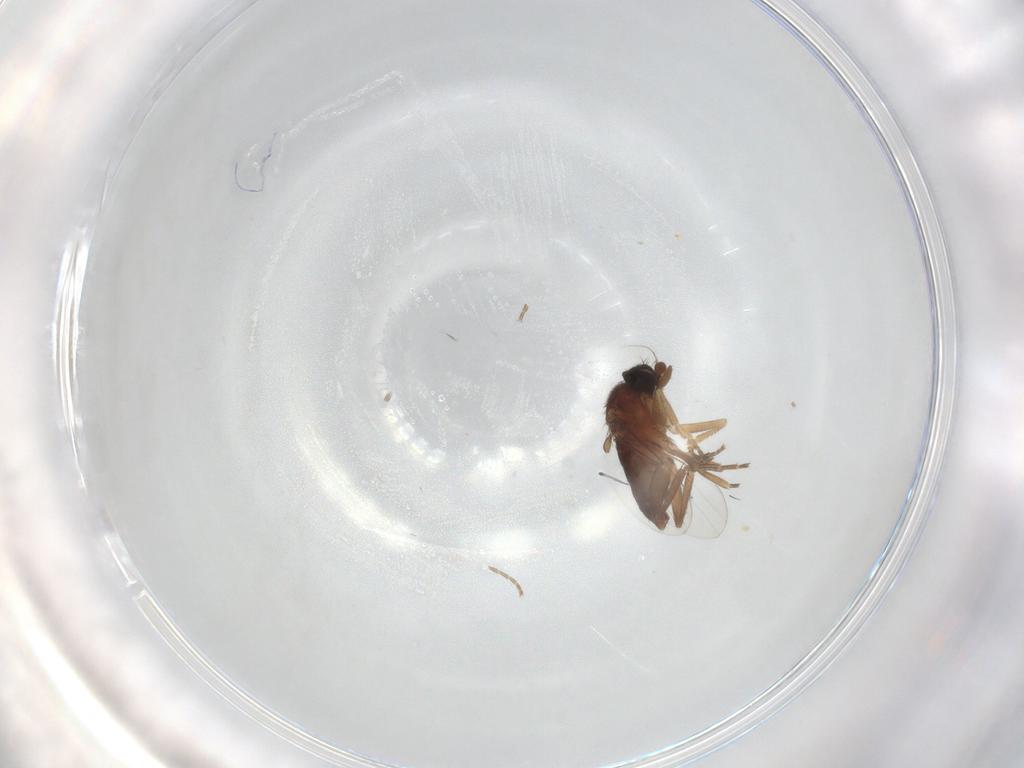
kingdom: Animalia
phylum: Arthropoda
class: Insecta
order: Diptera
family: Phoridae
